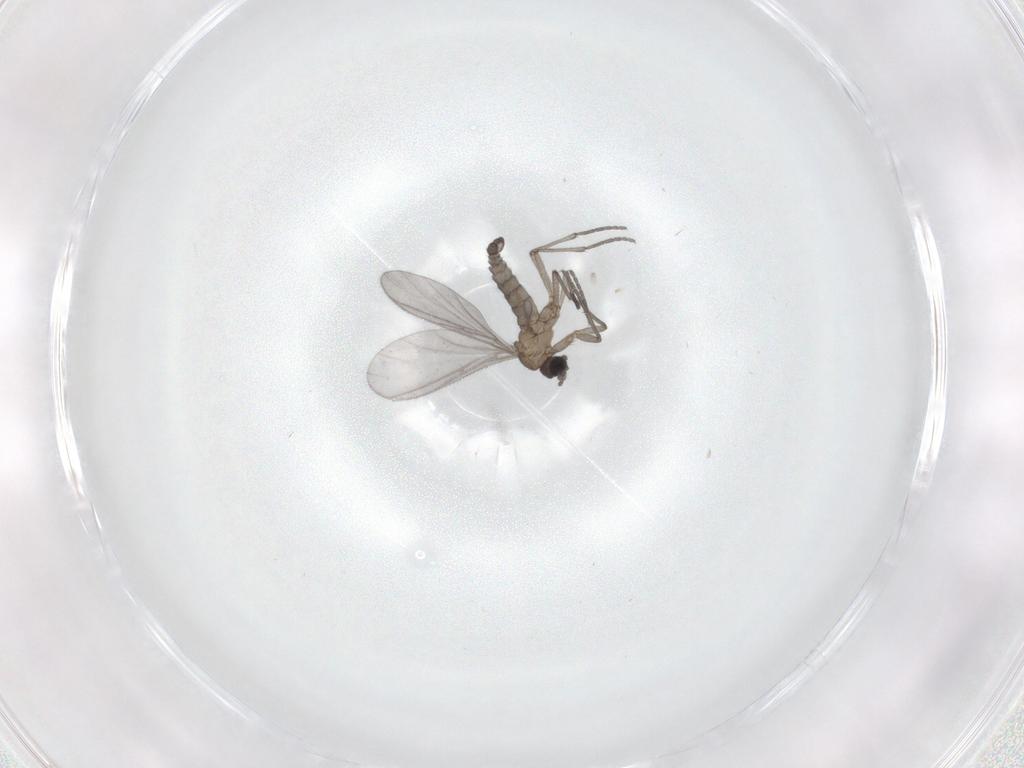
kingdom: Animalia
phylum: Arthropoda
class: Insecta
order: Diptera
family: Sciaridae
